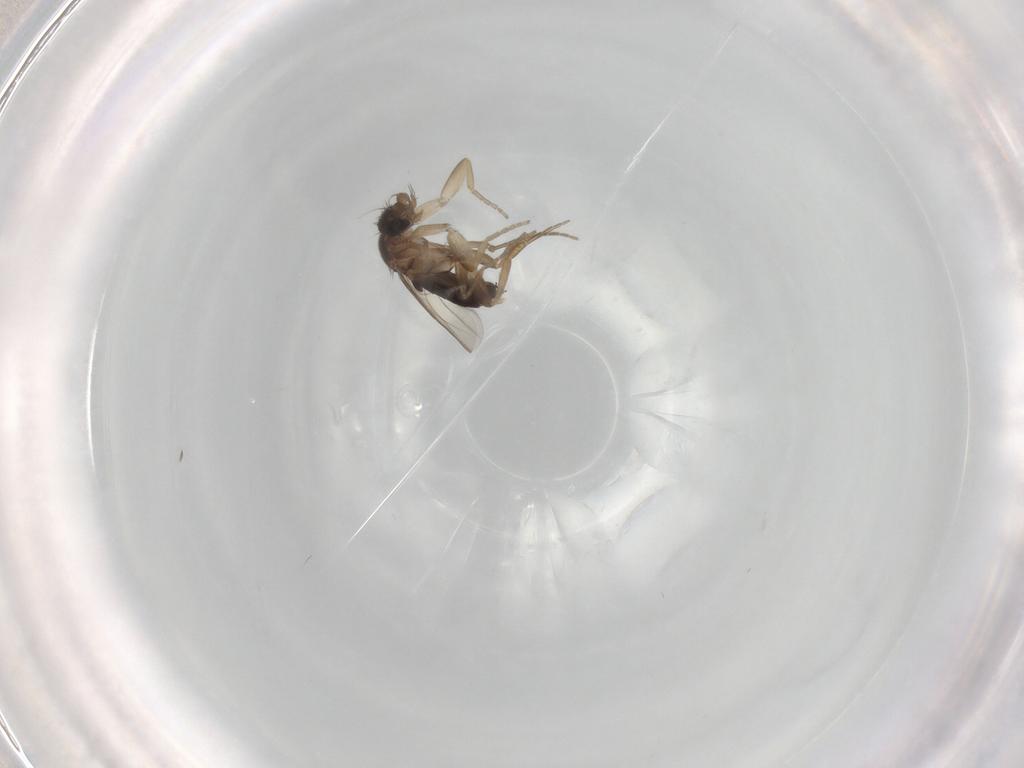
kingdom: Animalia
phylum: Arthropoda
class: Insecta
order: Diptera
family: Phoridae
